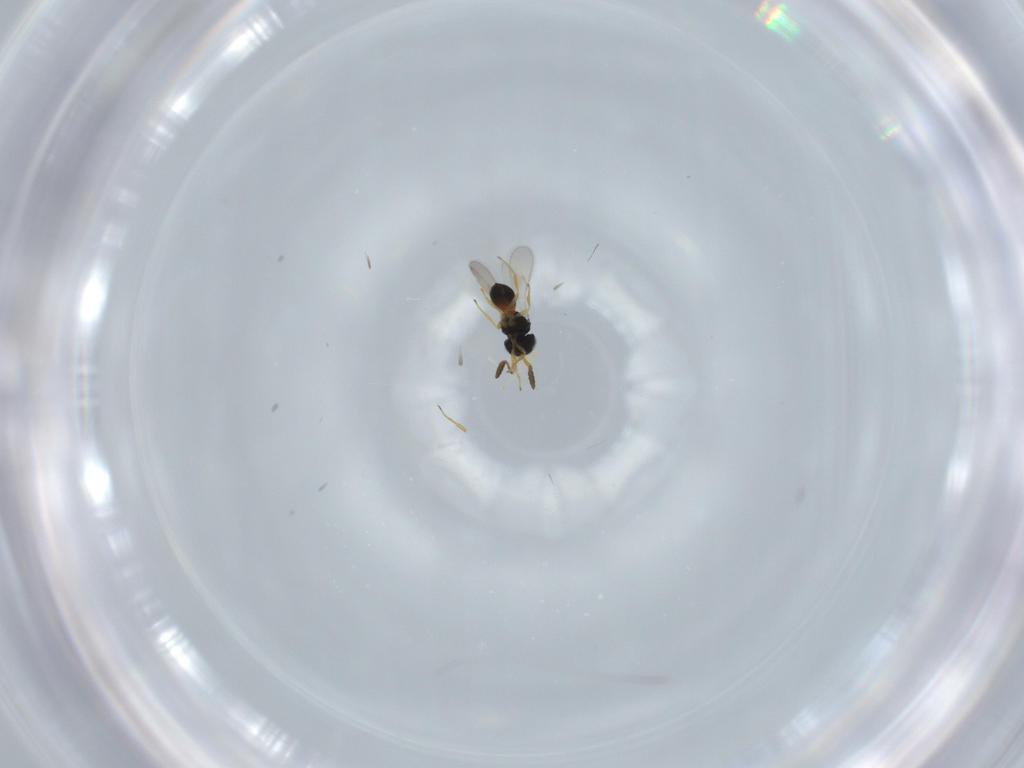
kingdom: Animalia
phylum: Arthropoda
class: Insecta
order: Hymenoptera
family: Scelionidae
